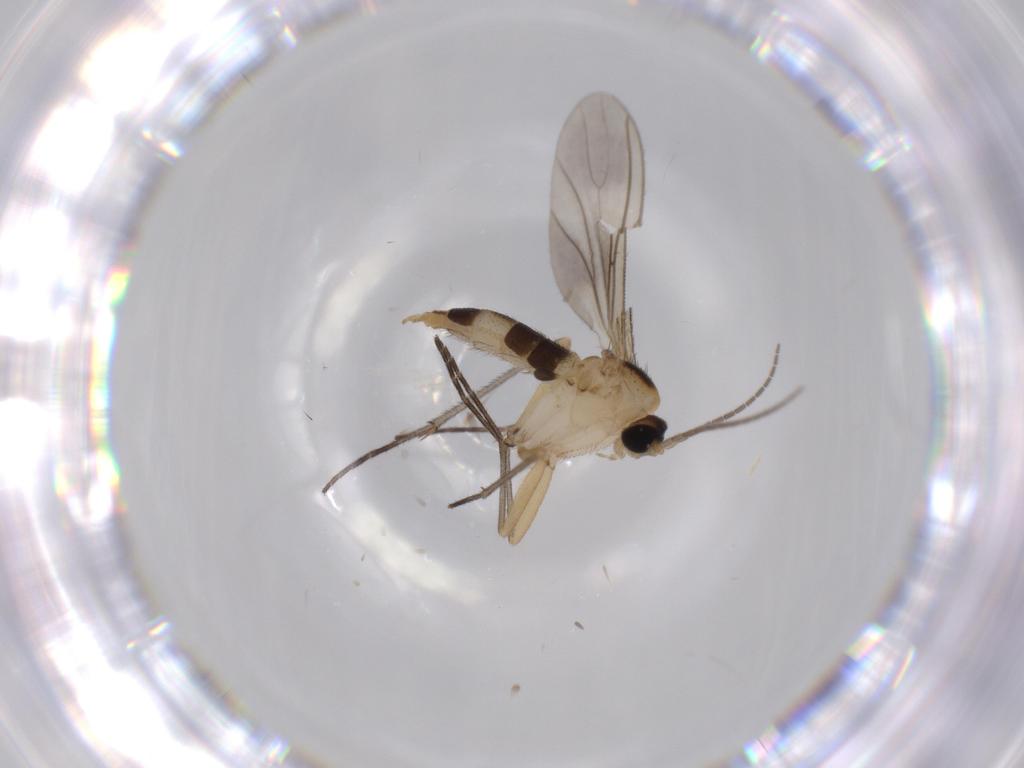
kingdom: Animalia
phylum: Arthropoda
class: Insecta
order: Diptera
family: Sciaridae
